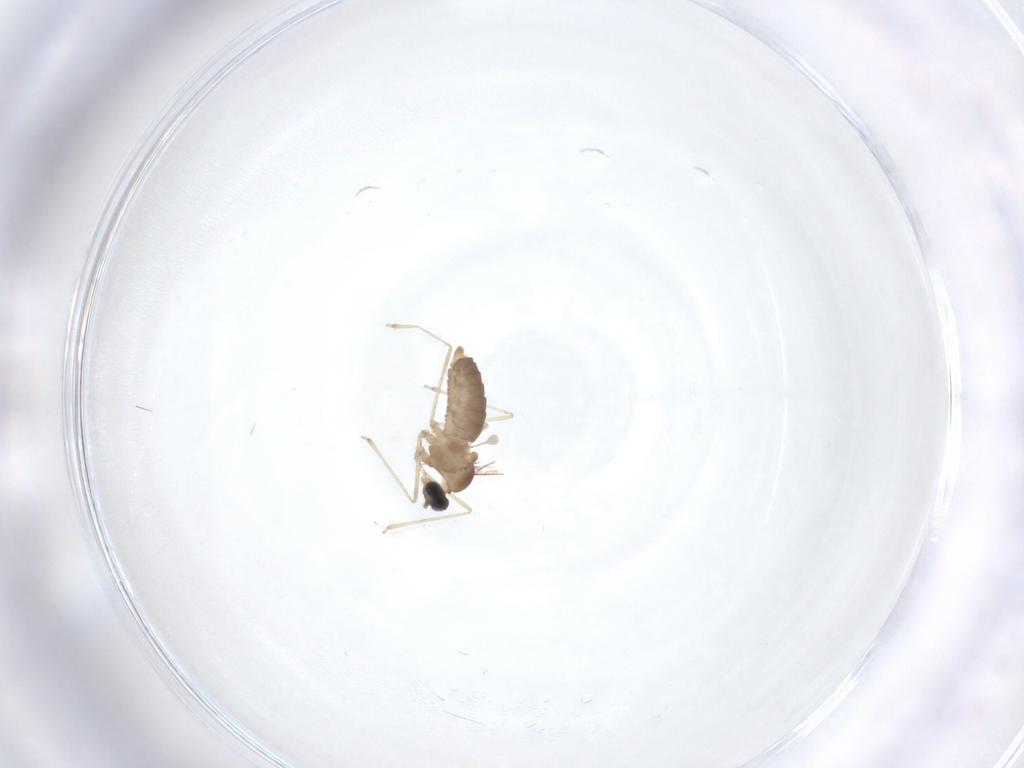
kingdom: Animalia
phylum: Arthropoda
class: Insecta
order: Diptera
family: Cecidomyiidae
